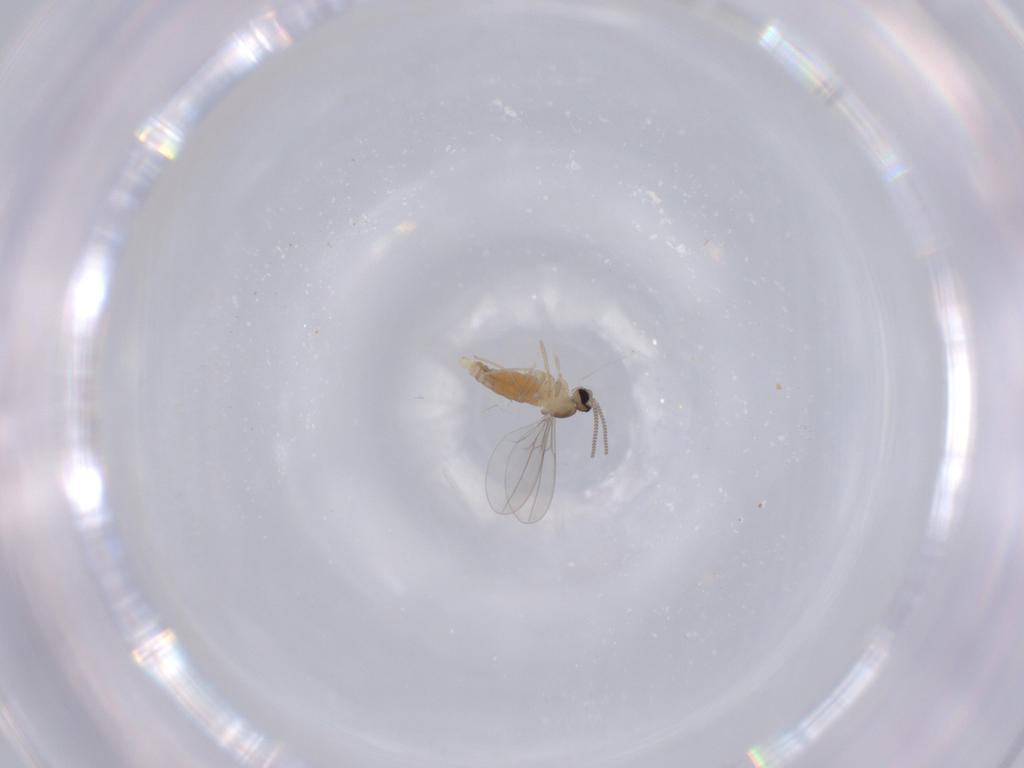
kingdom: Animalia
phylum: Arthropoda
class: Insecta
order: Diptera
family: Cecidomyiidae
